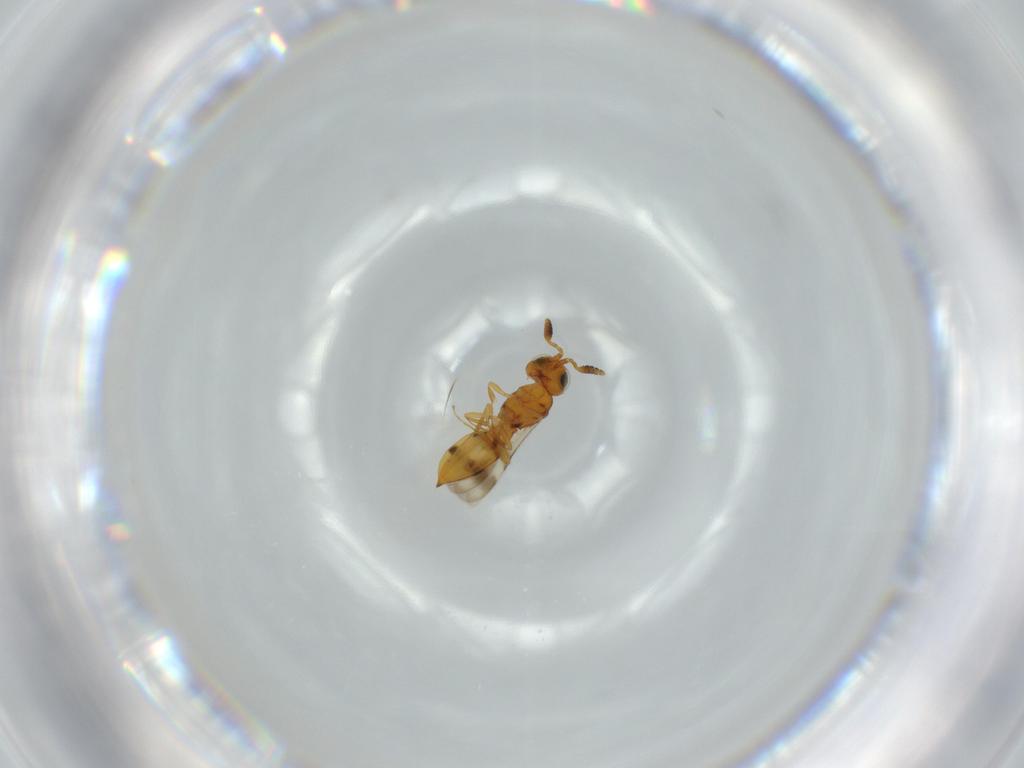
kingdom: Animalia
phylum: Arthropoda
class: Insecta
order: Hymenoptera
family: Scelionidae
